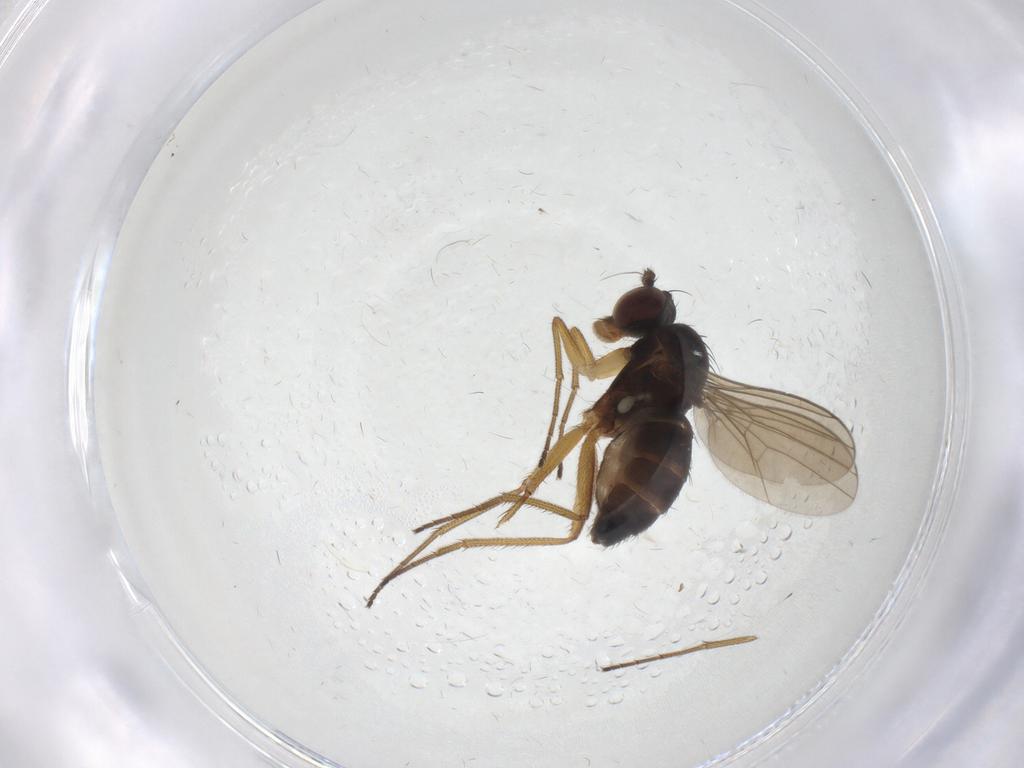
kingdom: Animalia
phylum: Arthropoda
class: Insecta
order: Diptera
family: Dolichopodidae
